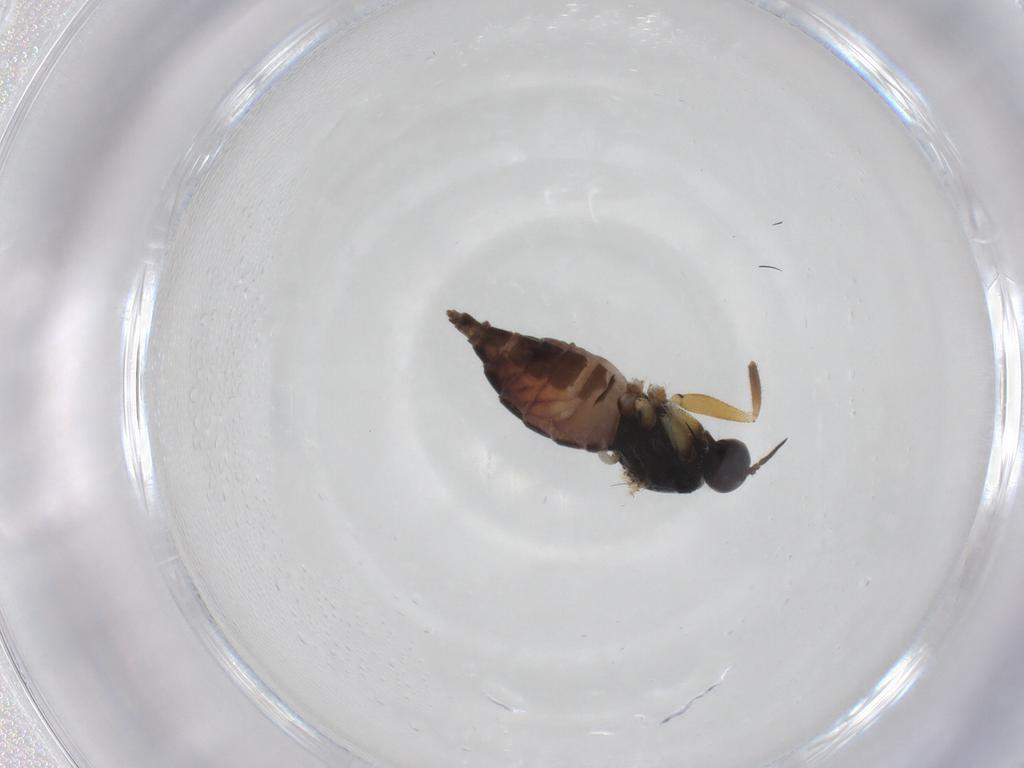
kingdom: Animalia
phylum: Arthropoda
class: Insecta
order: Diptera
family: Hybotidae
